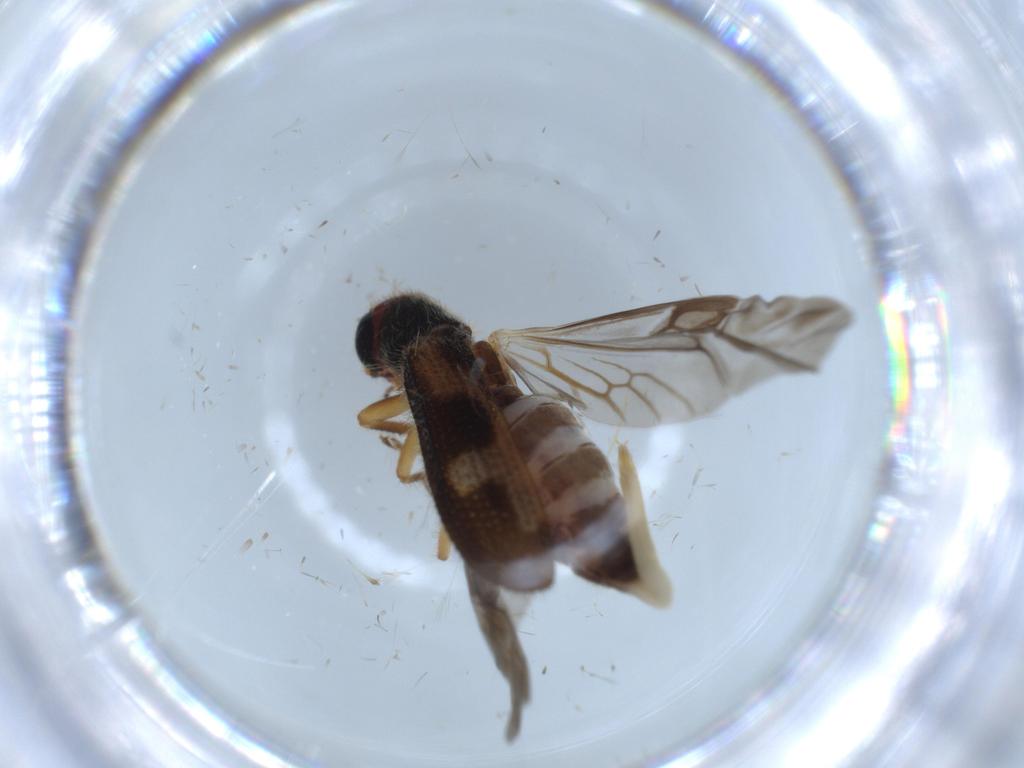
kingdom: Animalia
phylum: Arthropoda
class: Insecta
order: Coleoptera
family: Cleridae
